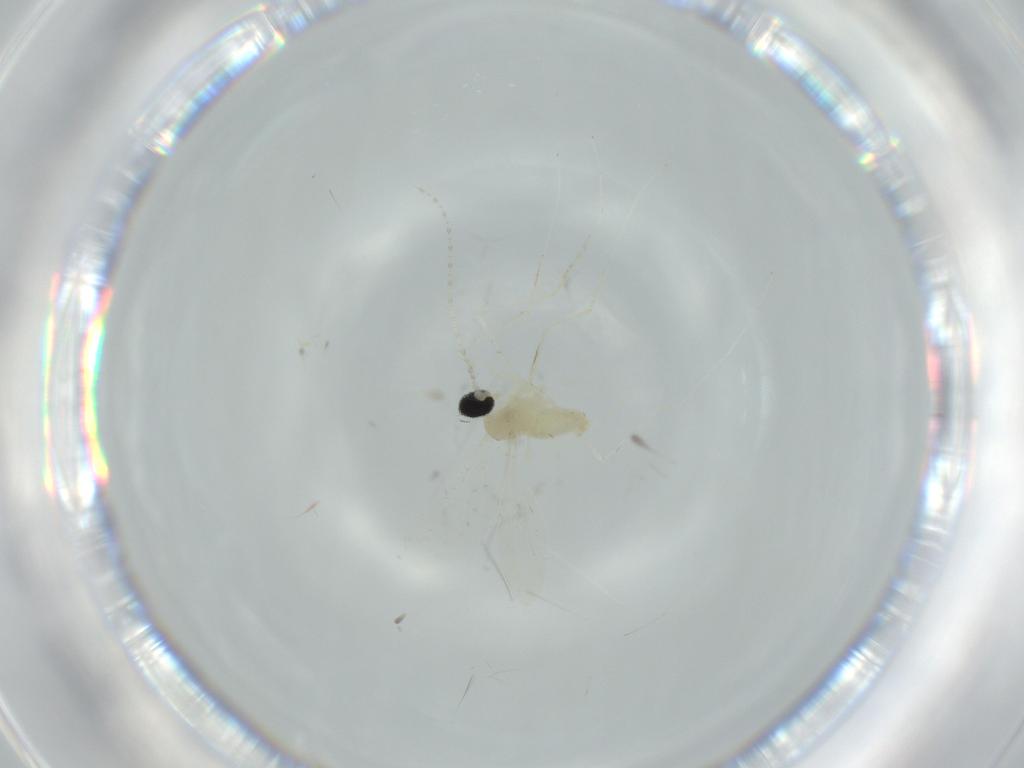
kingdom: Animalia
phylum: Arthropoda
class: Insecta
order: Diptera
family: Cecidomyiidae
